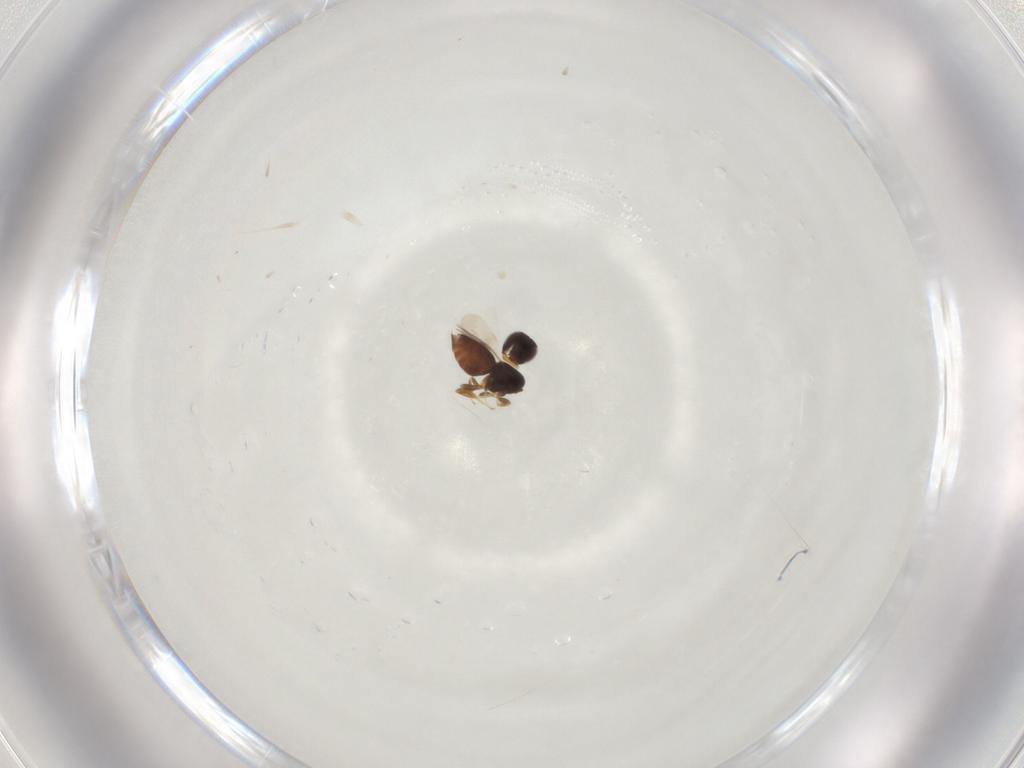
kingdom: Animalia
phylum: Arthropoda
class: Insecta
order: Hymenoptera
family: Ceraphronidae
